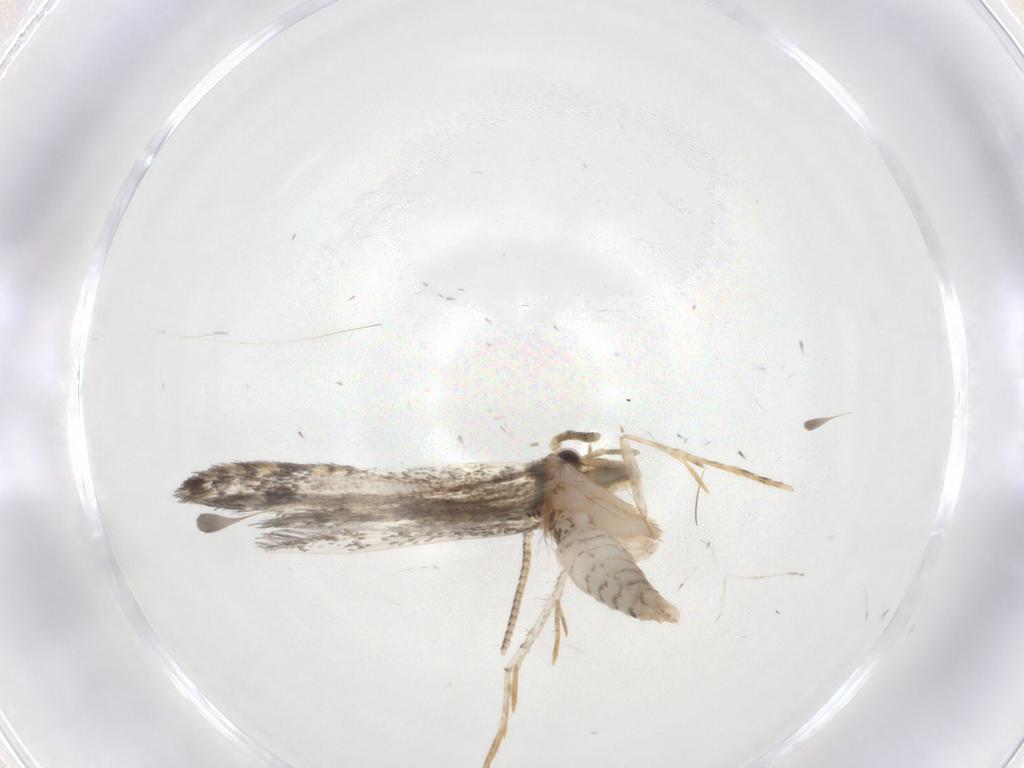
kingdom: Animalia
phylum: Arthropoda
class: Insecta
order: Lepidoptera
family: Tineidae
